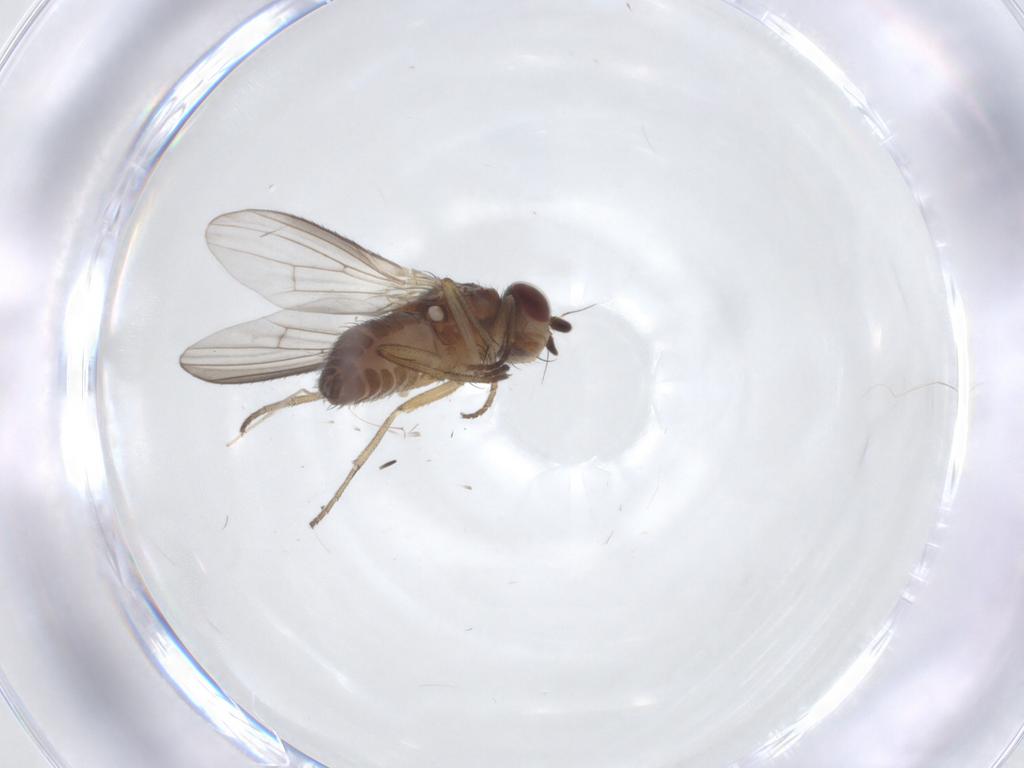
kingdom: Animalia
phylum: Arthropoda
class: Insecta
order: Diptera
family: Heleomyzidae
